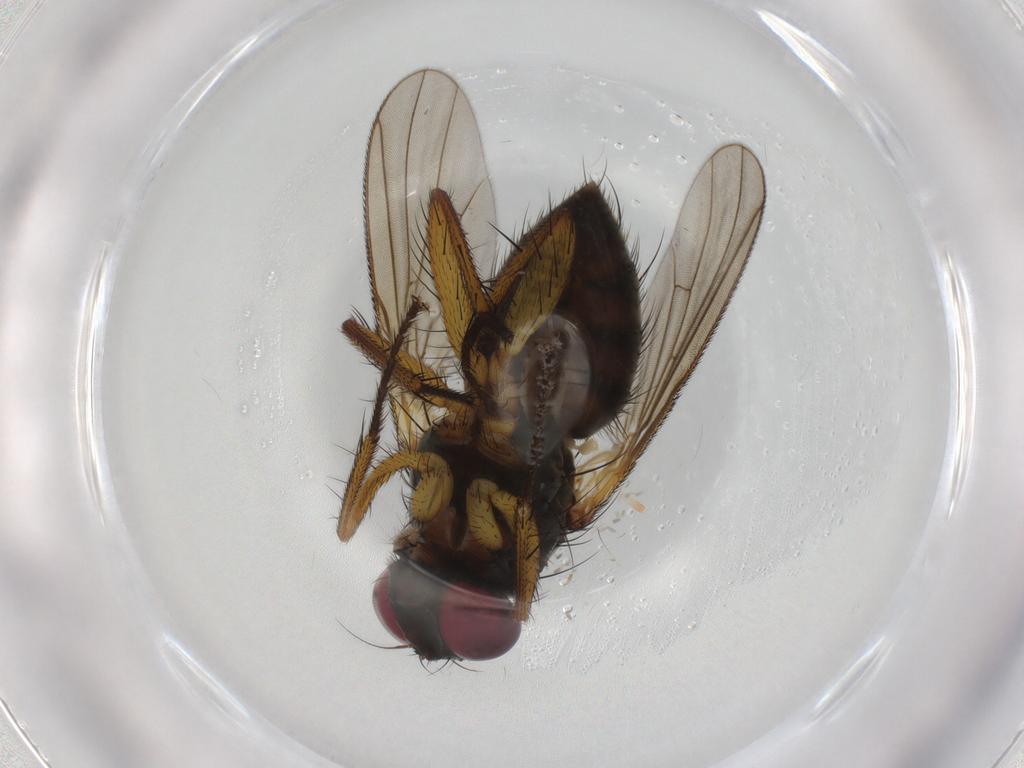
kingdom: Animalia
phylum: Arthropoda
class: Insecta
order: Diptera
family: Muscidae
